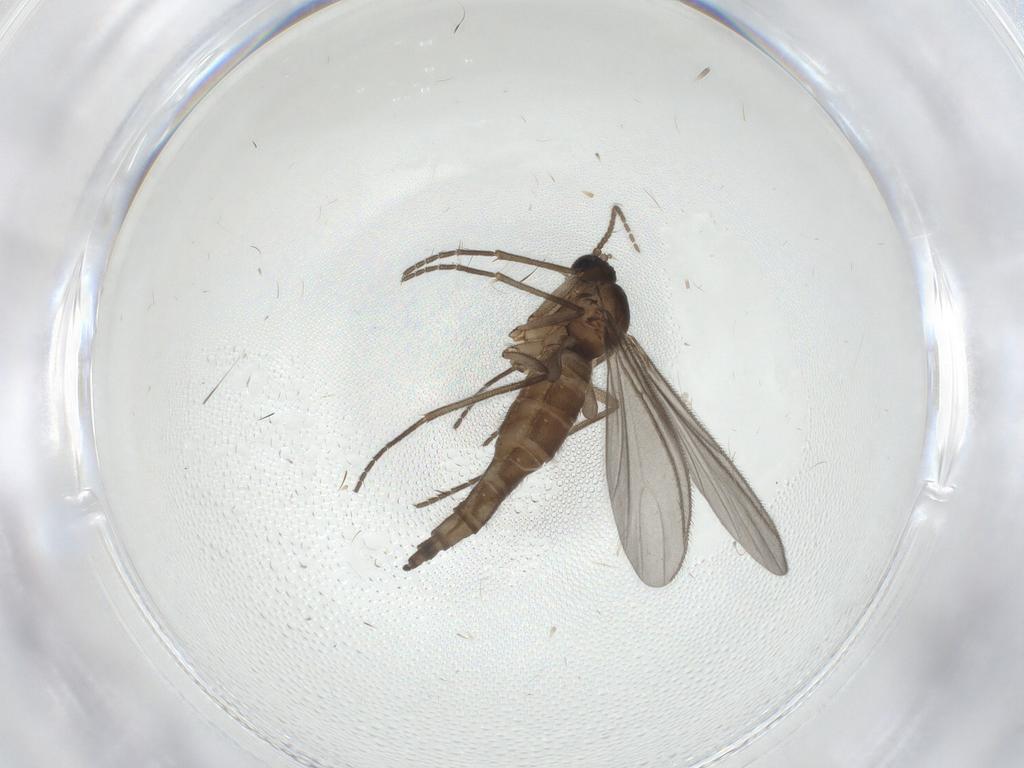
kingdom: Animalia
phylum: Arthropoda
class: Insecta
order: Diptera
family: Sciaridae
